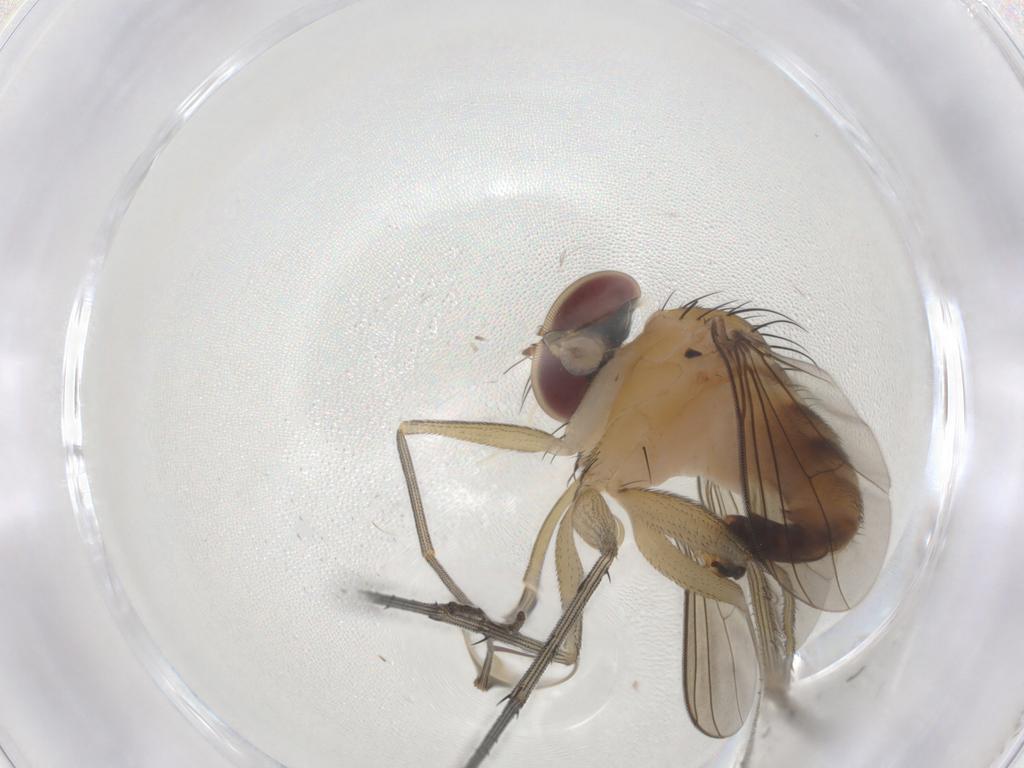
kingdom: Animalia
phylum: Arthropoda
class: Insecta
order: Diptera
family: Dolichopodidae
